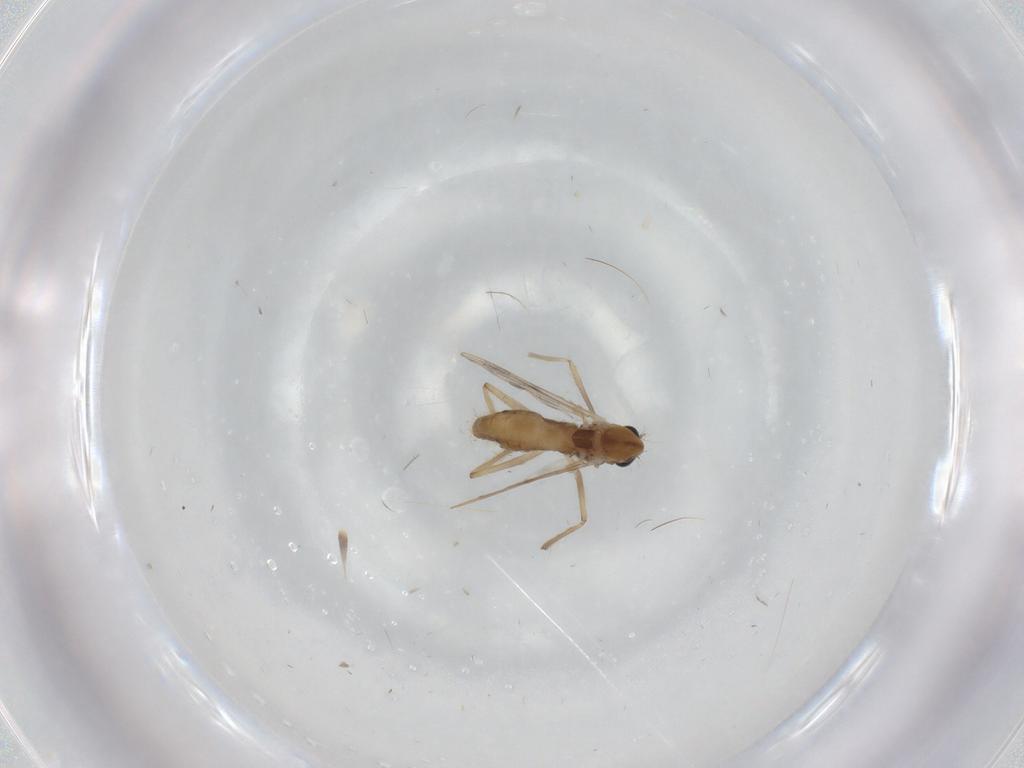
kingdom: Animalia
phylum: Arthropoda
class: Insecta
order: Diptera
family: Chironomidae
